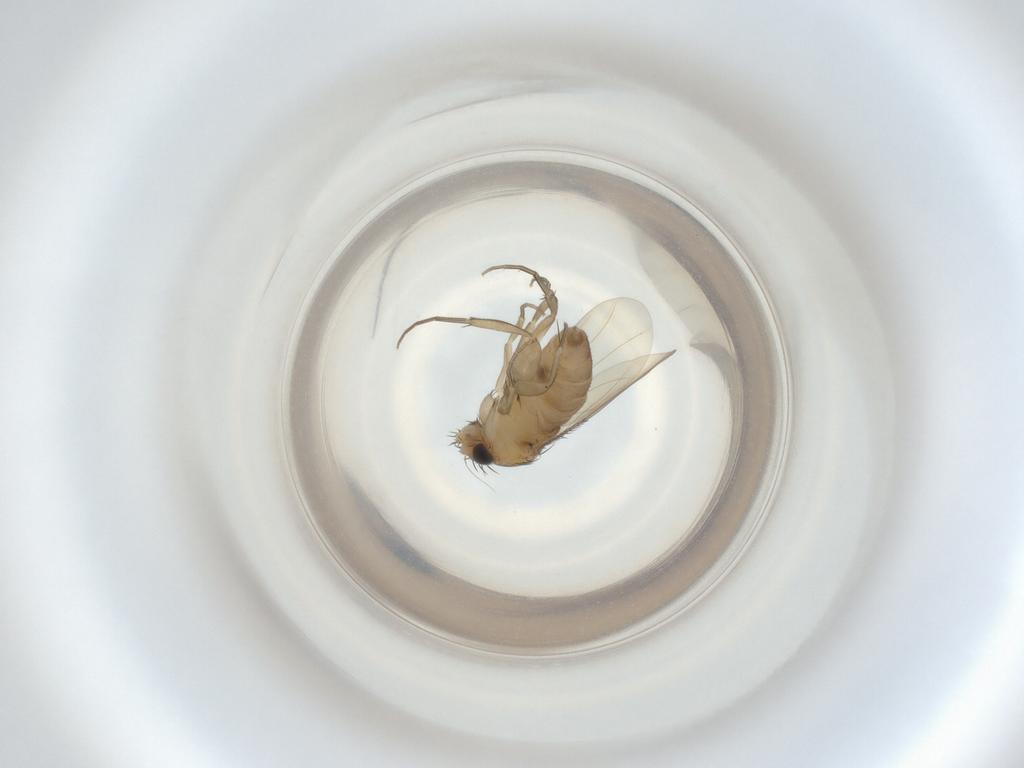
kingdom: Animalia
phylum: Arthropoda
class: Insecta
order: Diptera
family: Phoridae
